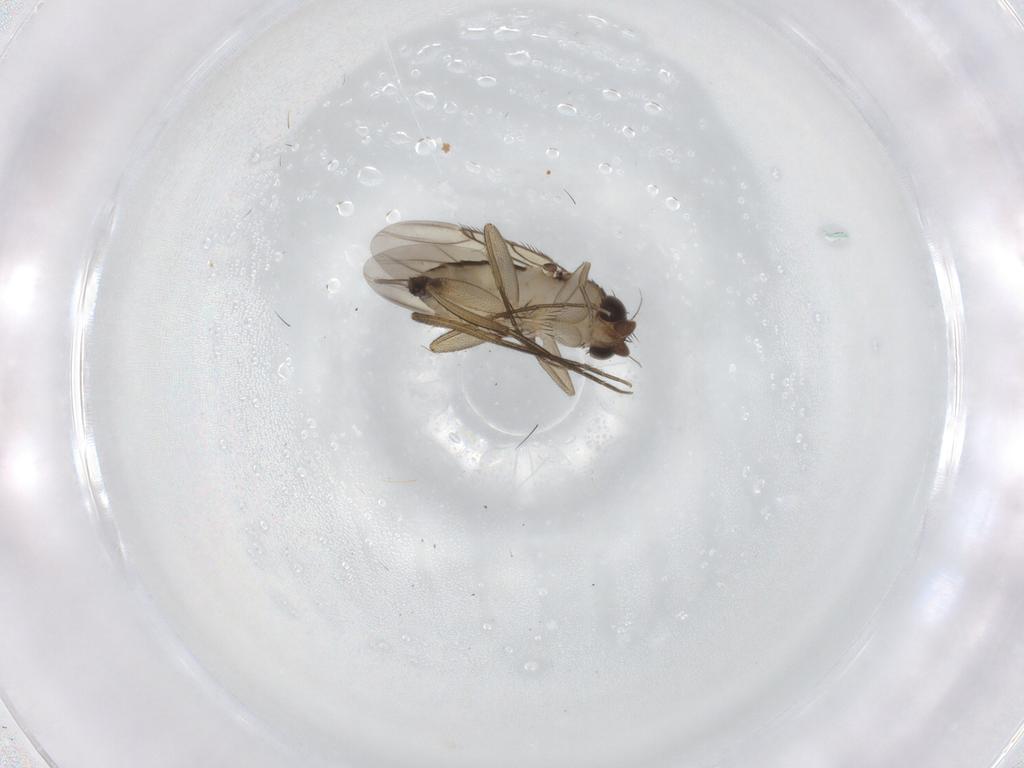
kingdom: Animalia
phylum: Arthropoda
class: Insecta
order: Diptera
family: Phoridae
